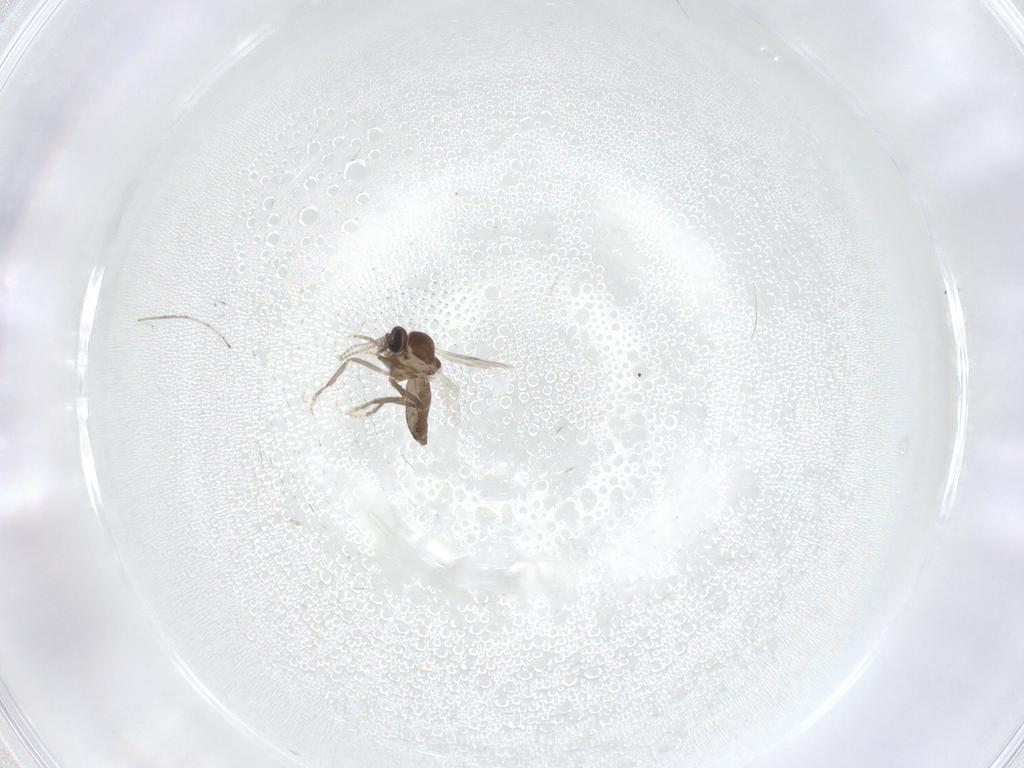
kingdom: Animalia
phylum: Arthropoda
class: Insecta
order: Diptera
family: Ceratopogonidae
